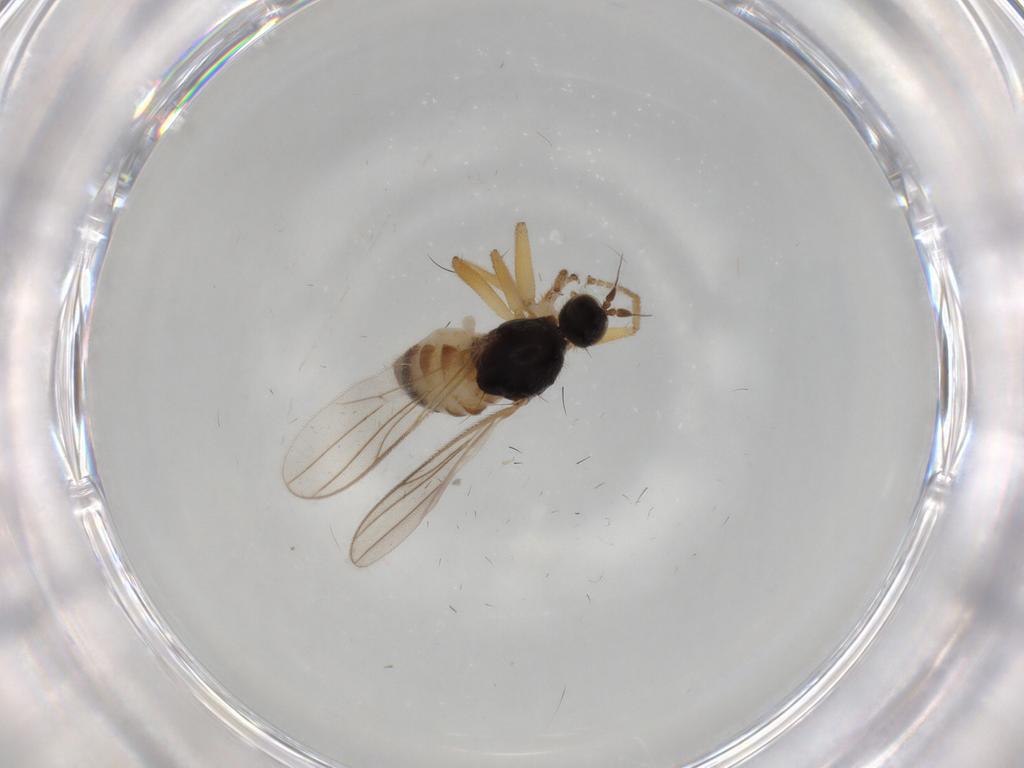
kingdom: Animalia
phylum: Arthropoda
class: Insecta
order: Diptera
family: Hybotidae
